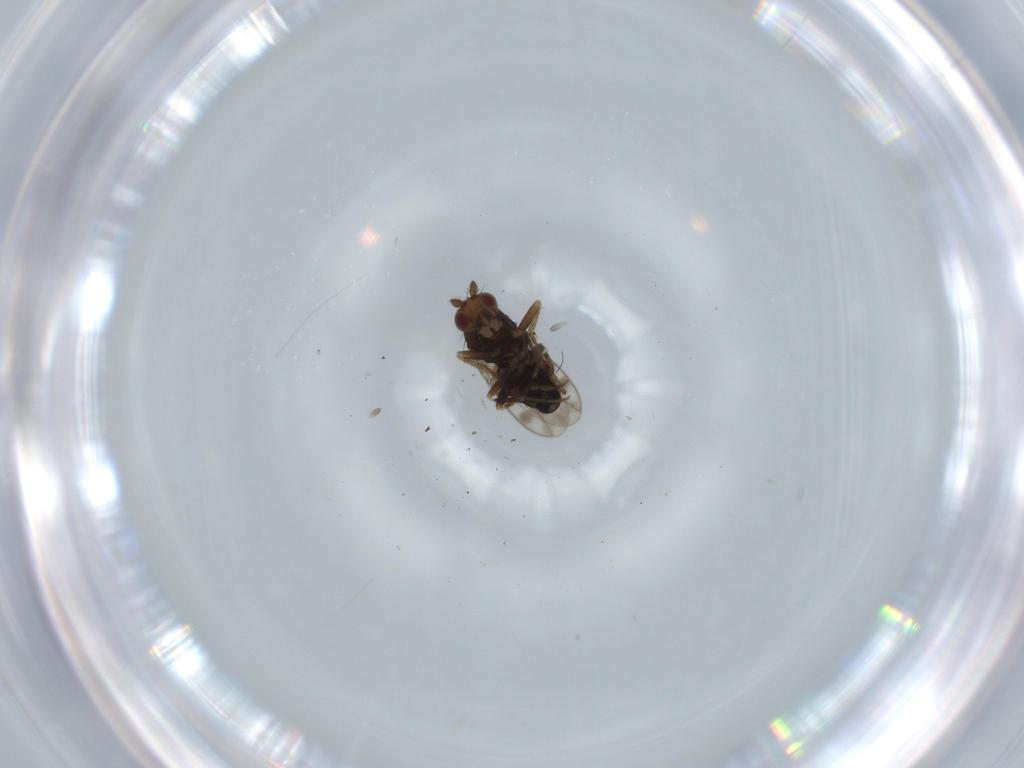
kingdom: Animalia
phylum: Arthropoda
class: Insecta
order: Diptera
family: Sphaeroceridae
